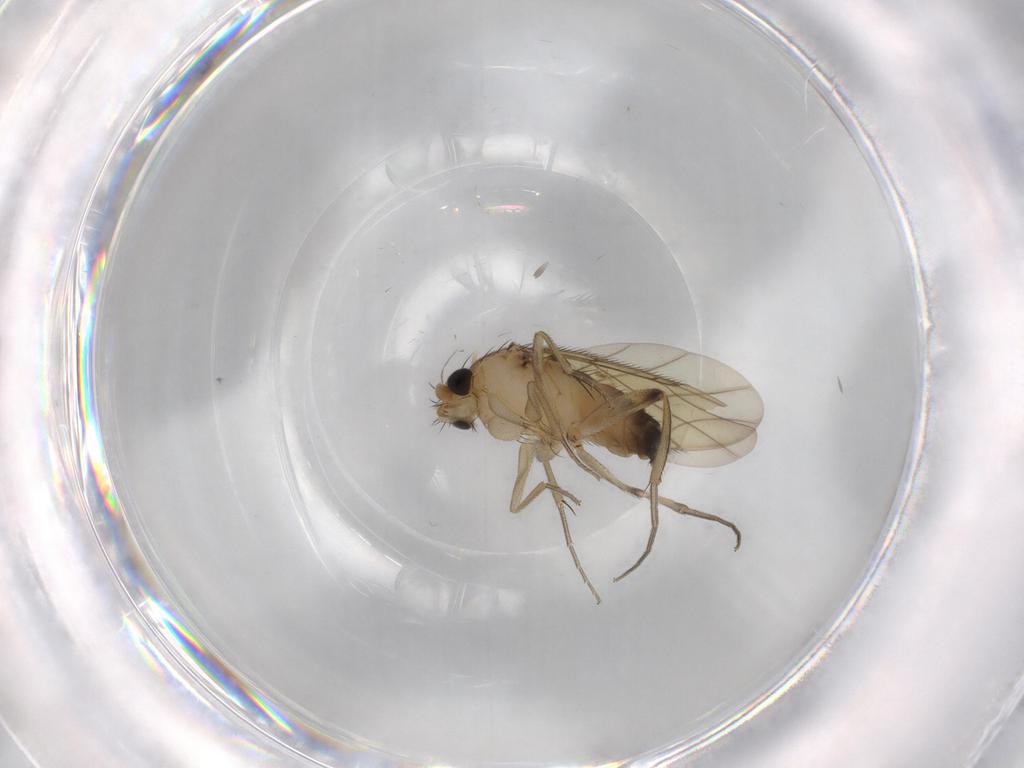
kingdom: Animalia
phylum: Arthropoda
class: Insecta
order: Diptera
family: Phoridae
